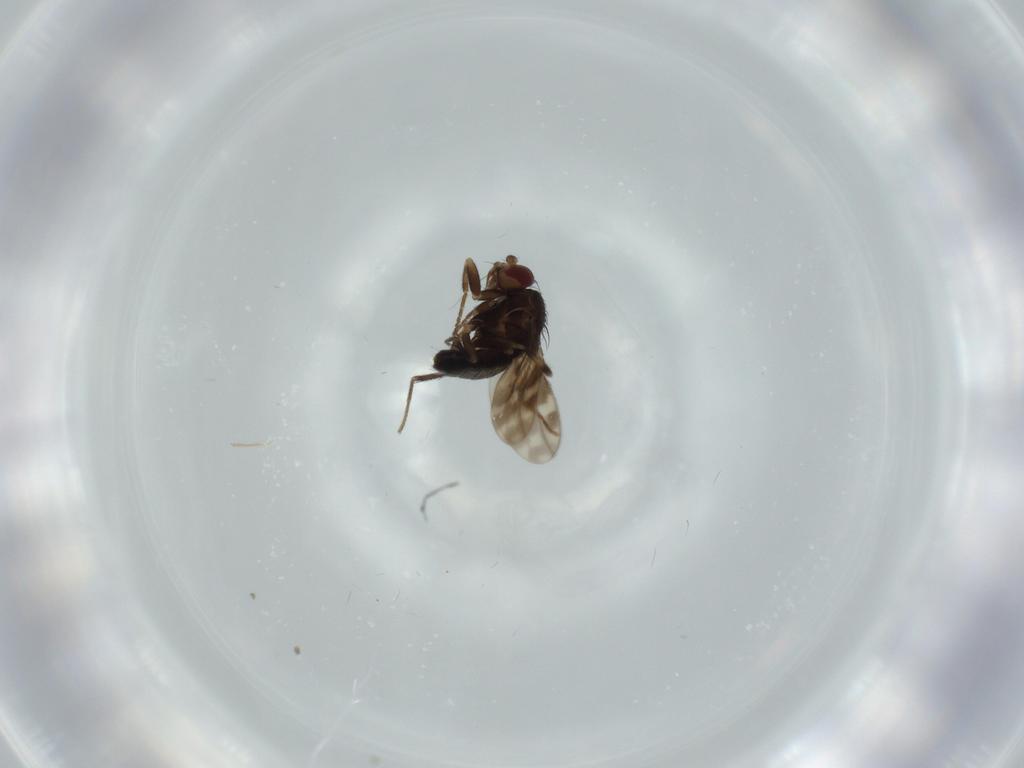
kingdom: Animalia
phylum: Arthropoda
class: Insecta
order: Diptera
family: Sphaeroceridae
